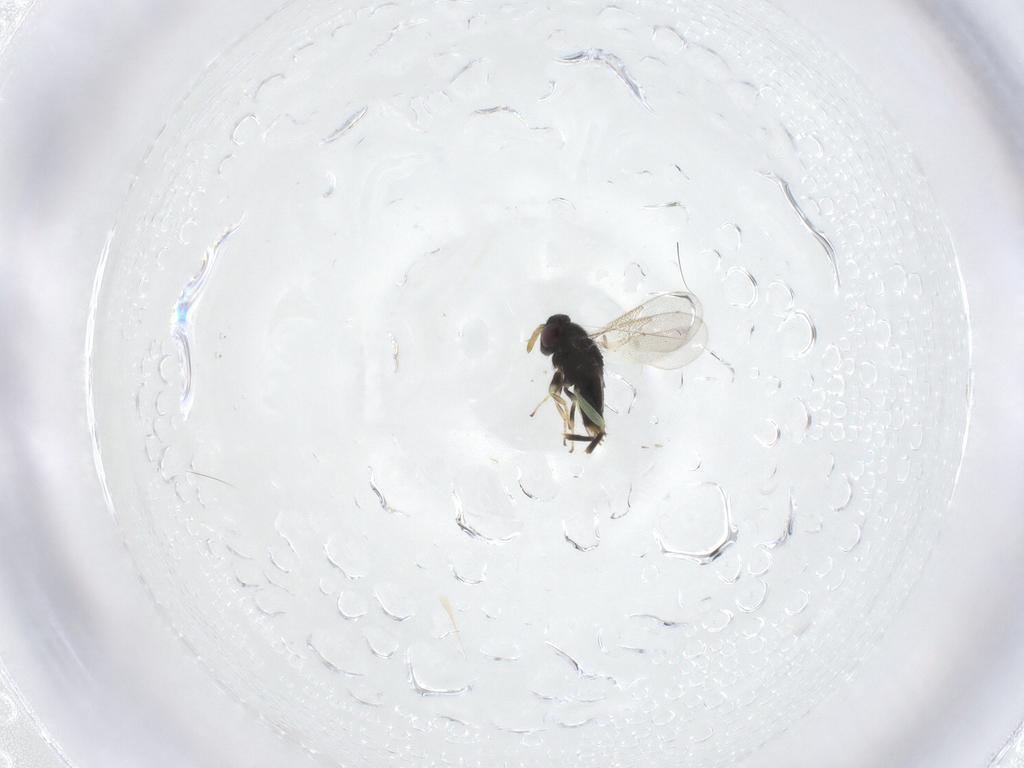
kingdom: Animalia
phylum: Arthropoda
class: Insecta
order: Hymenoptera
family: Aphelinidae
